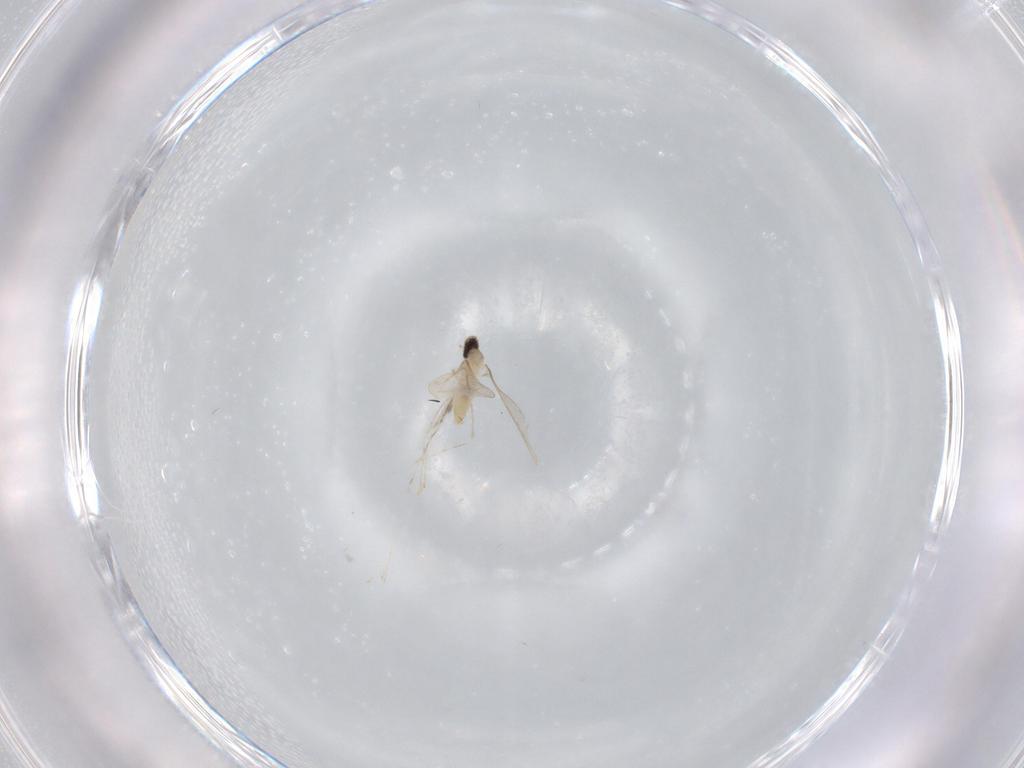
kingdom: Animalia
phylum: Arthropoda
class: Insecta
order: Diptera
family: Cecidomyiidae
